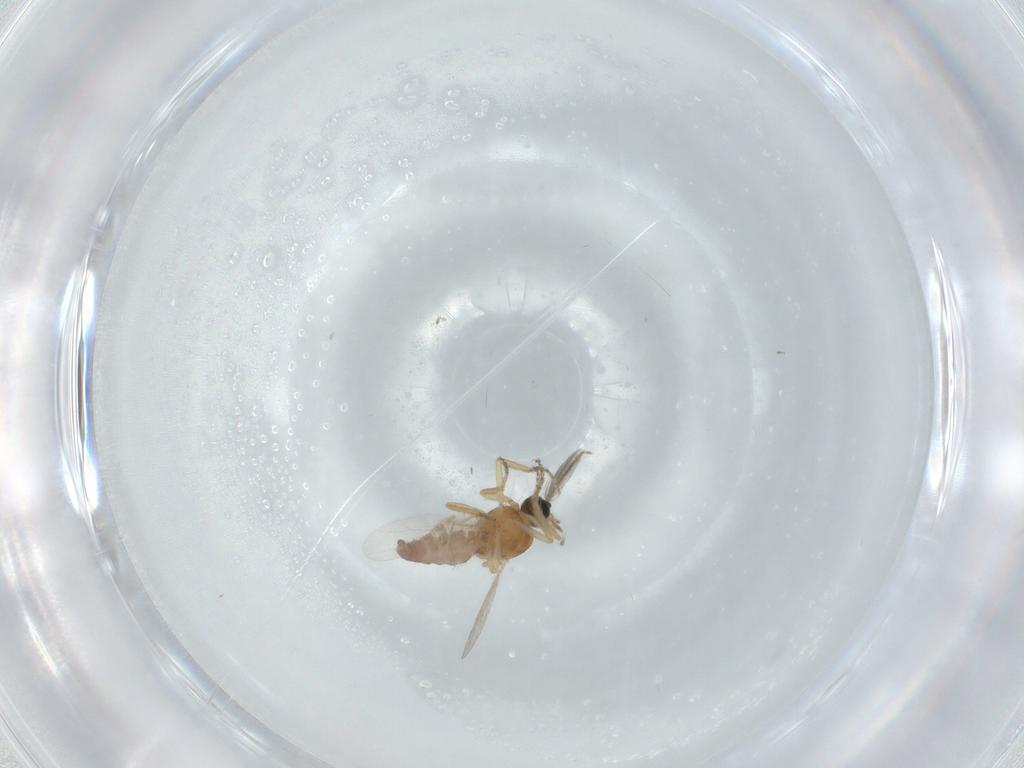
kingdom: Animalia
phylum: Arthropoda
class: Insecta
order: Diptera
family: Ceratopogonidae
